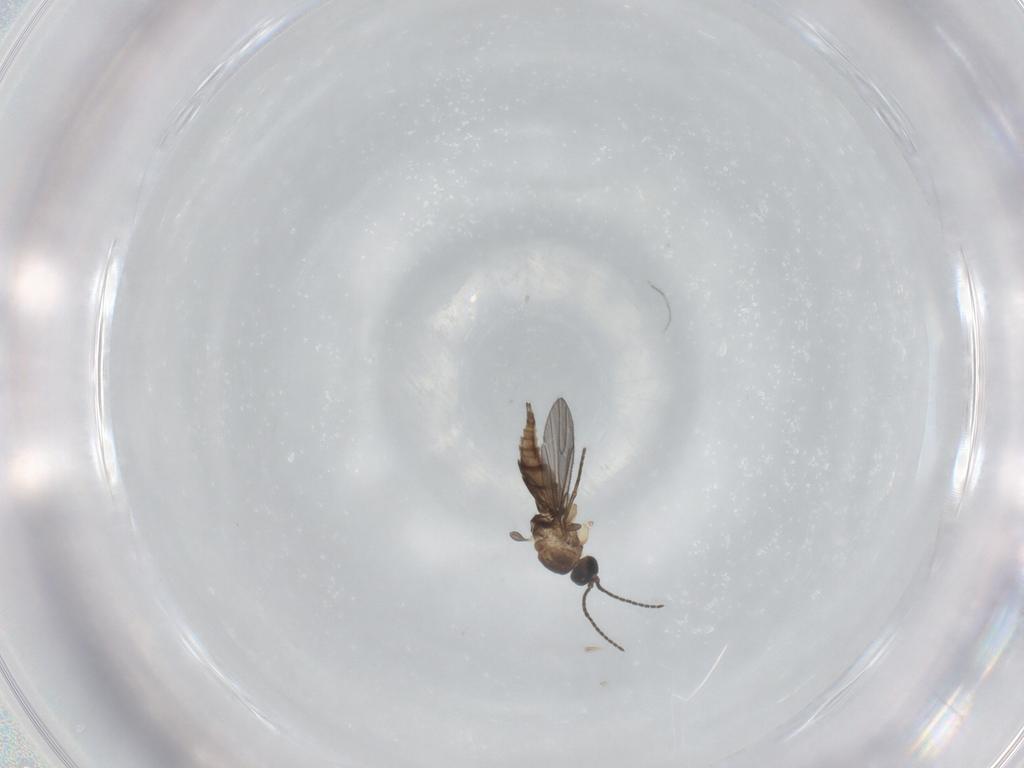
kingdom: Animalia
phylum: Arthropoda
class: Insecta
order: Diptera
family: Sciaridae
